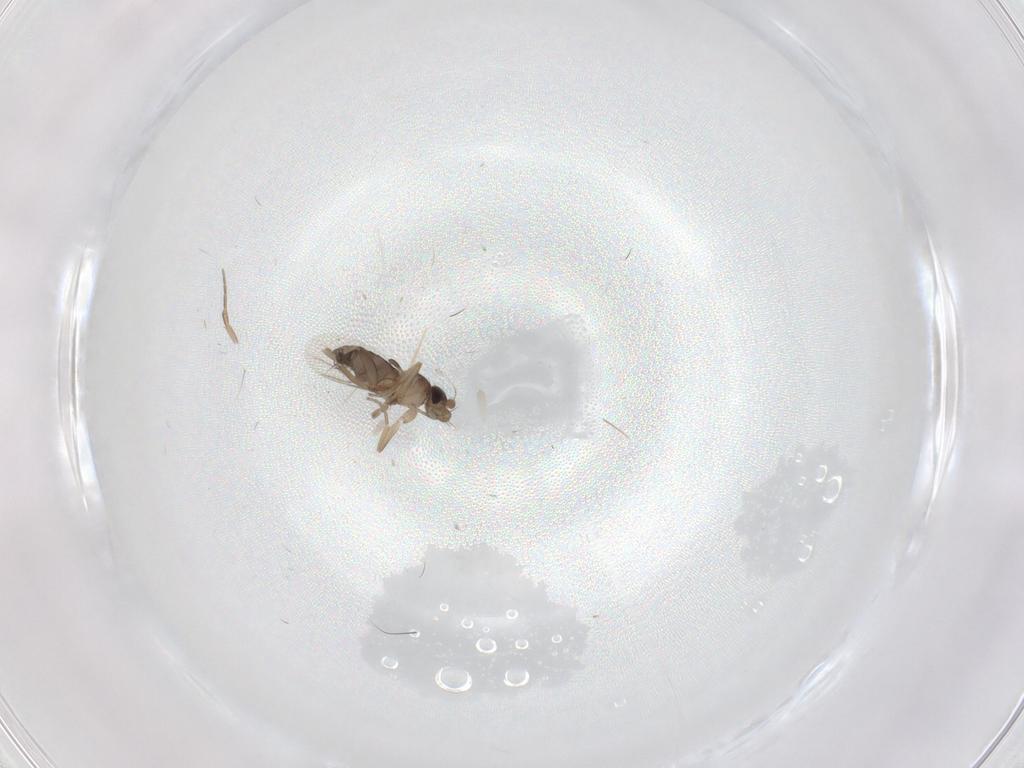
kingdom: Animalia
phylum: Arthropoda
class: Insecta
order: Diptera
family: Phoridae
